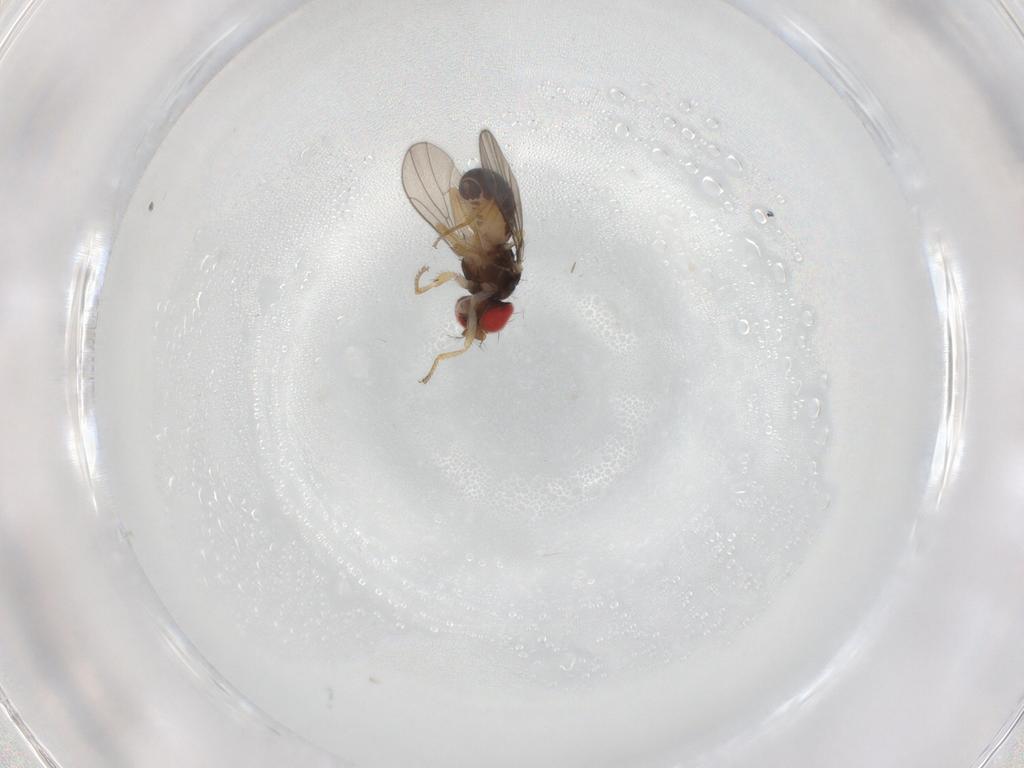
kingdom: Animalia
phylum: Arthropoda
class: Insecta
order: Diptera
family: Drosophilidae
